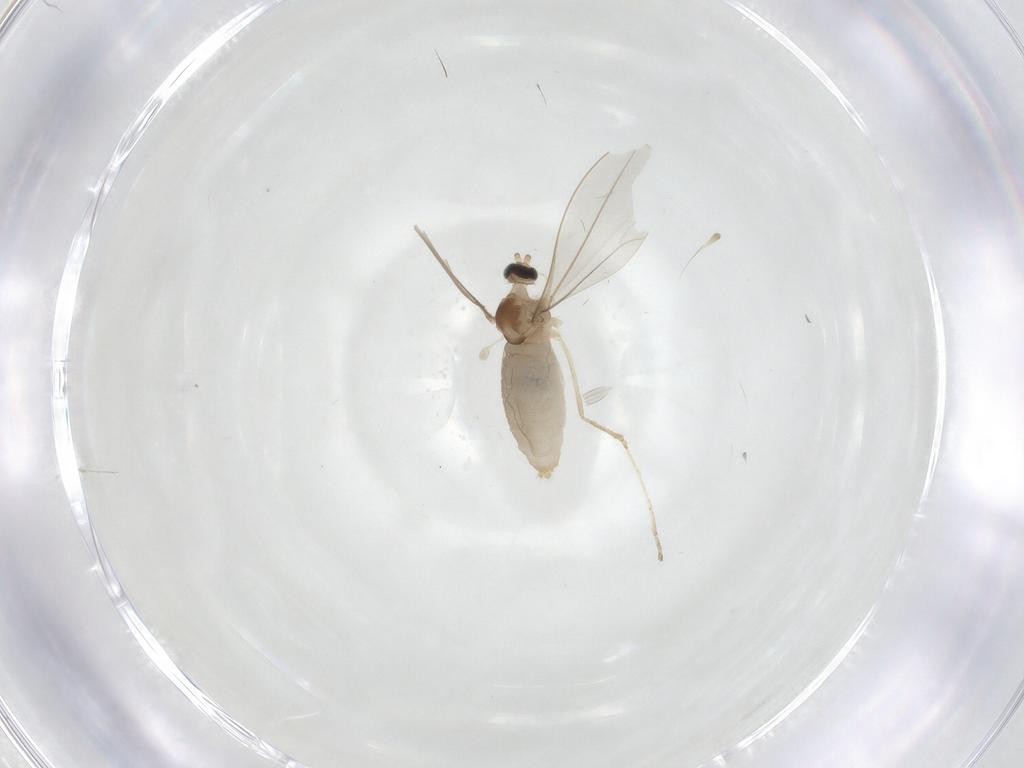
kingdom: Animalia
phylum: Arthropoda
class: Insecta
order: Diptera
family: Cecidomyiidae
